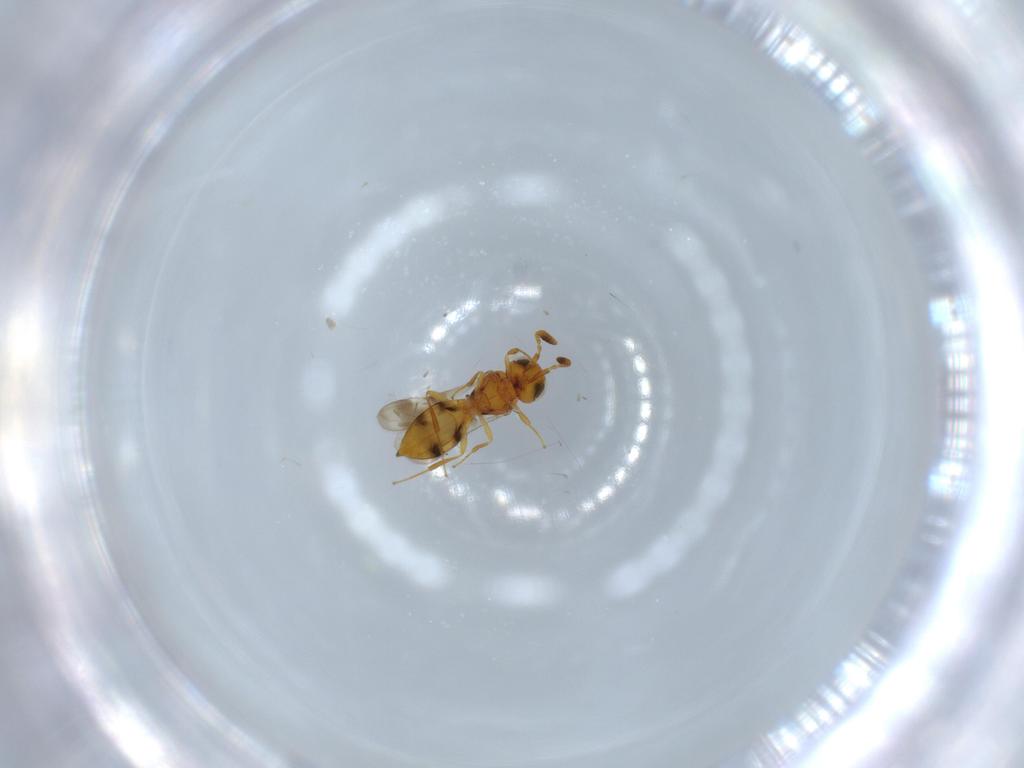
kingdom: Animalia
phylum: Arthropoda
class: Insecta
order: Hymenoptera
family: Scelionidae
